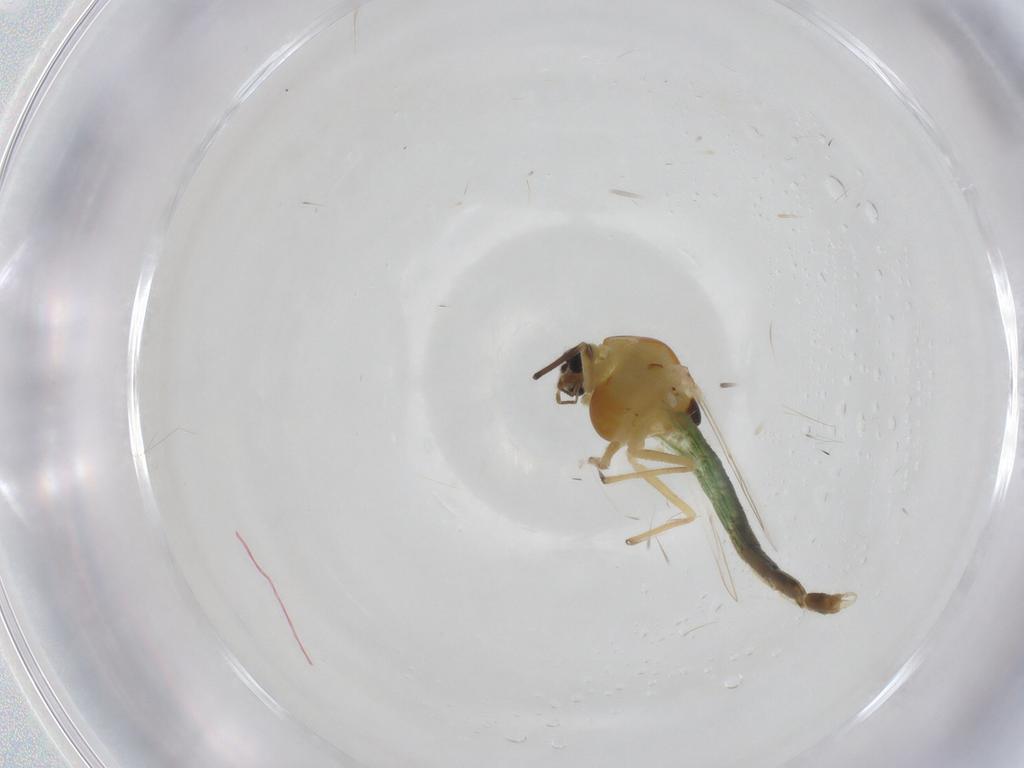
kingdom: Animalia
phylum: Arthropoda
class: Insecta
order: Diptera
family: Chironomidae
